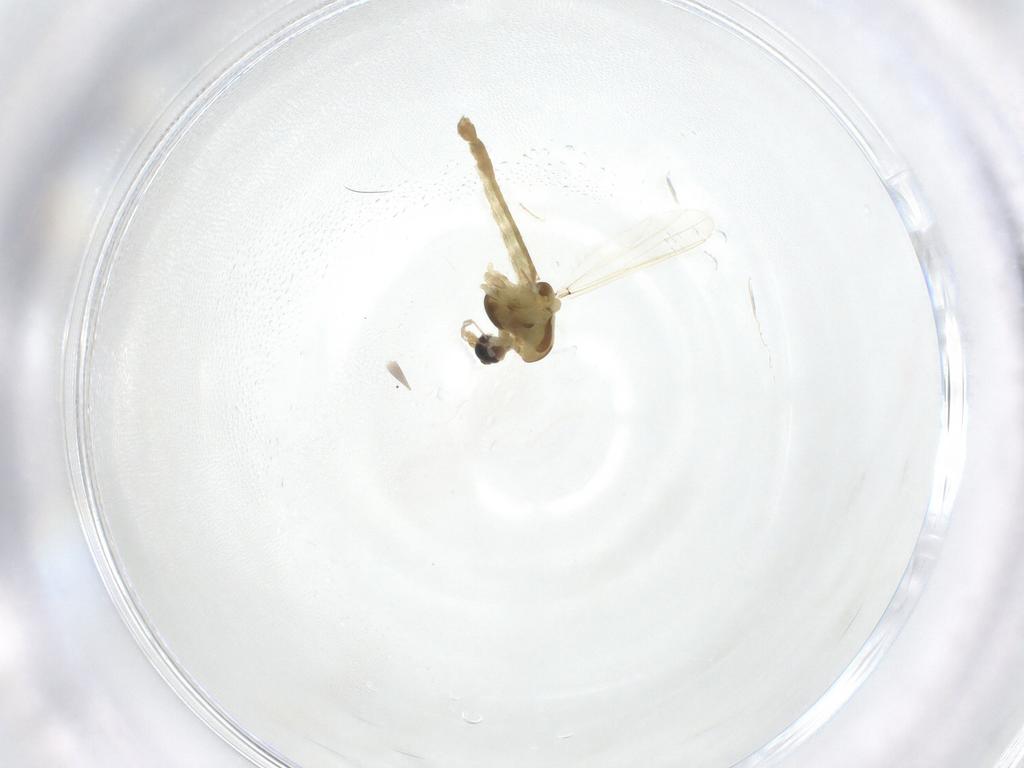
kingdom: Animalia
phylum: Arthropoda
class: Insecta
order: Diptera
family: Chironomidae
